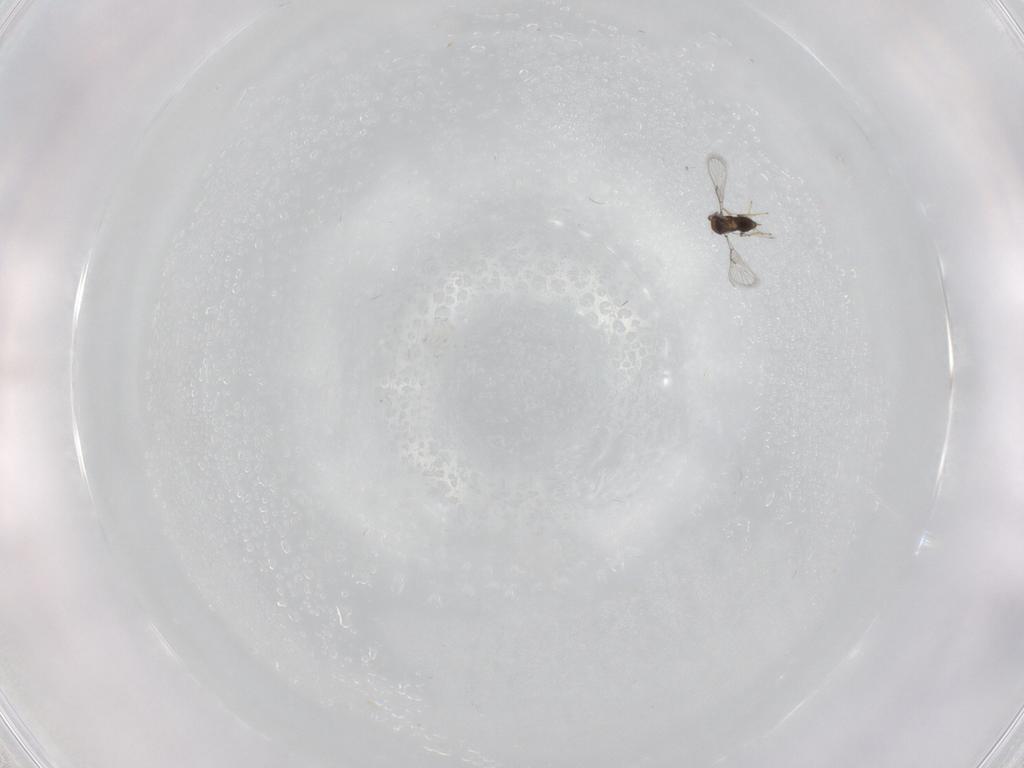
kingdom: Animalia
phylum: Arthropoda
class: Insecta
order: Hymenoptera
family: Trichogrammatidae
